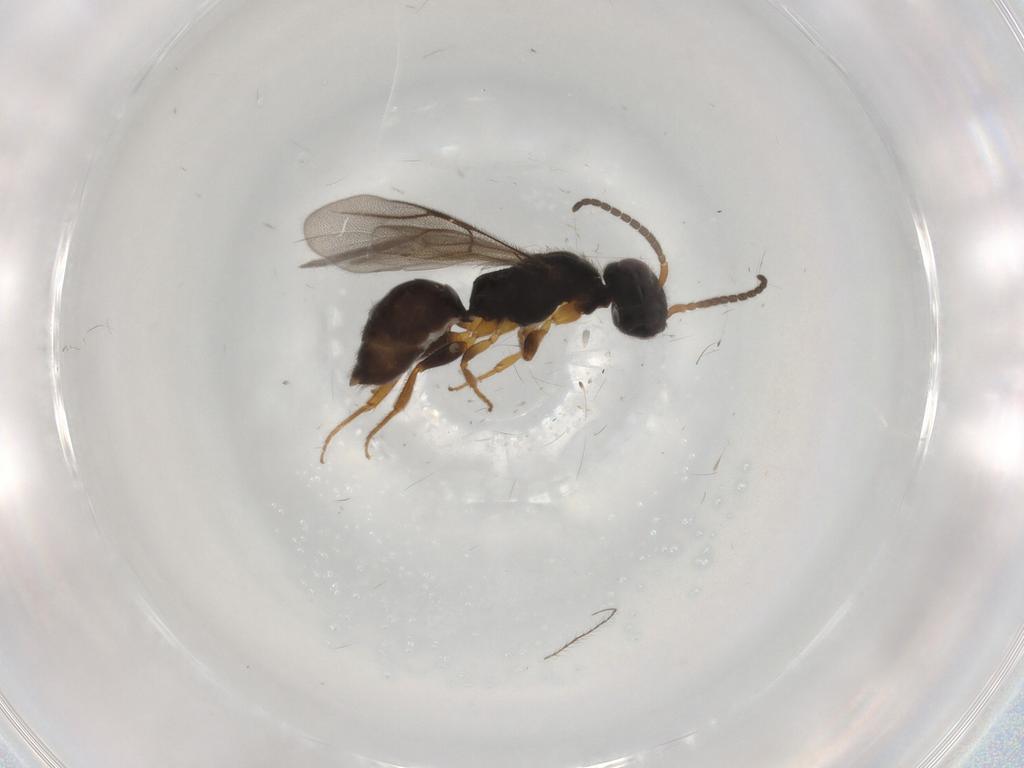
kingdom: Animalia
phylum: Arthropoda
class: Insecta
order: Hymenoptera
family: Bethylidae
